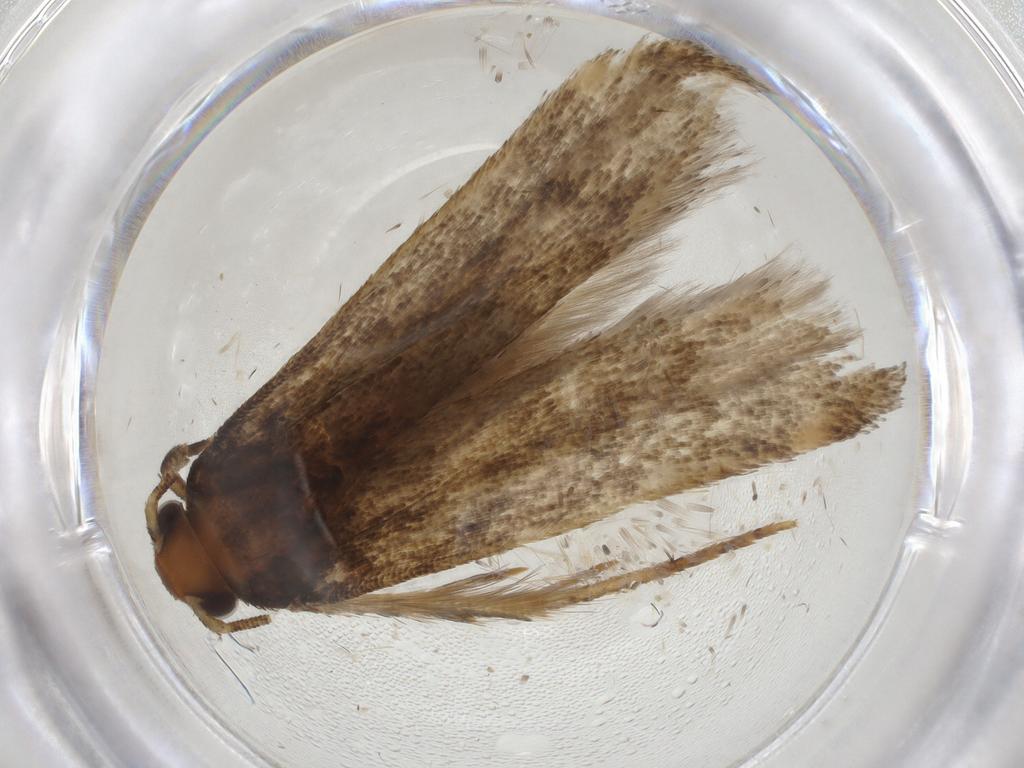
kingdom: Animalia
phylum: Arthropoda
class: Insecta
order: Lepidoptera
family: Gelechiidae
